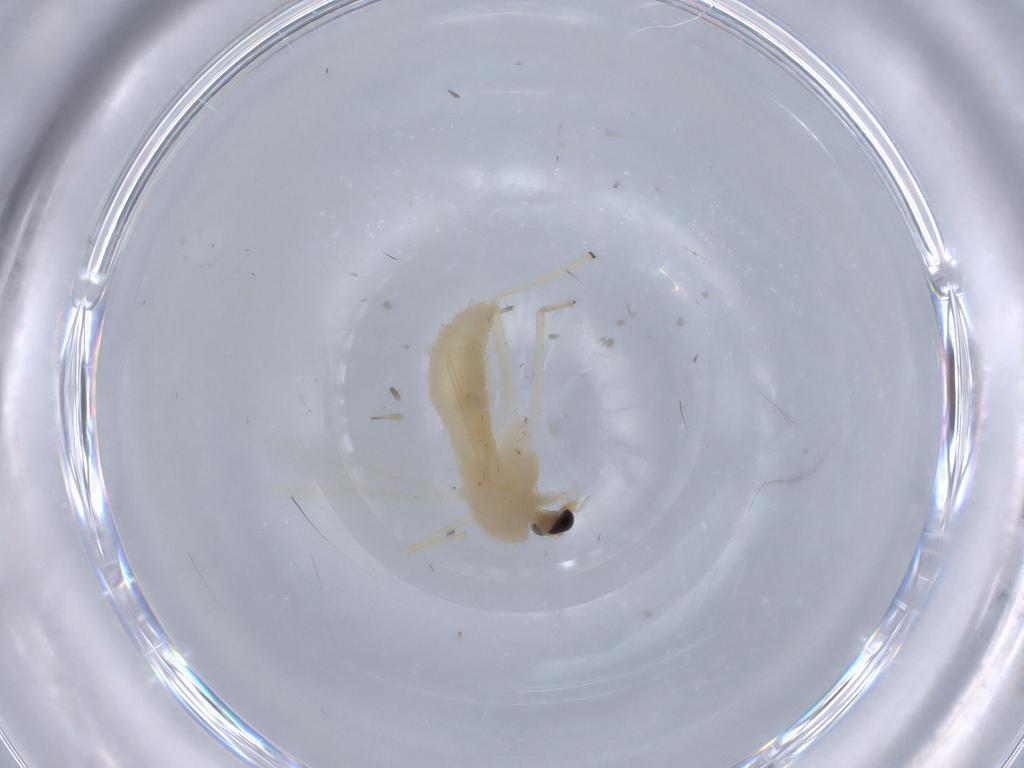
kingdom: Animalia
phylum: Arthropoda
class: Insecta
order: Diptera
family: Chironomidae
